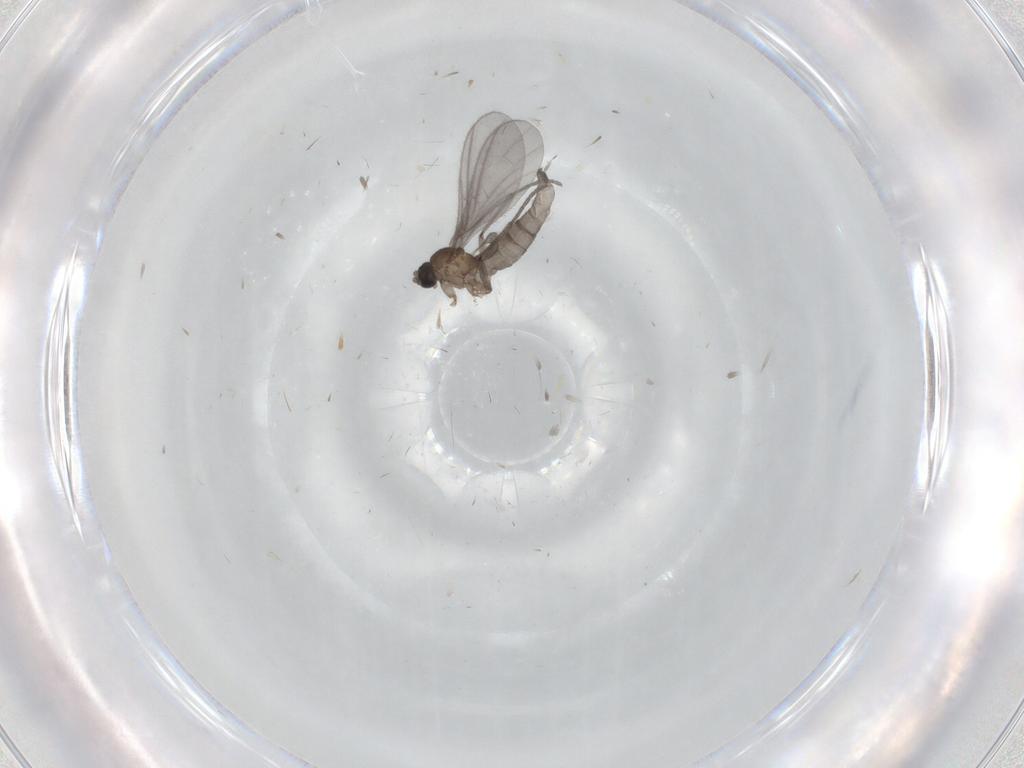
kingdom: Animalia
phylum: Arthropoda
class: Insecta
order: Diptera
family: Sciaridae
